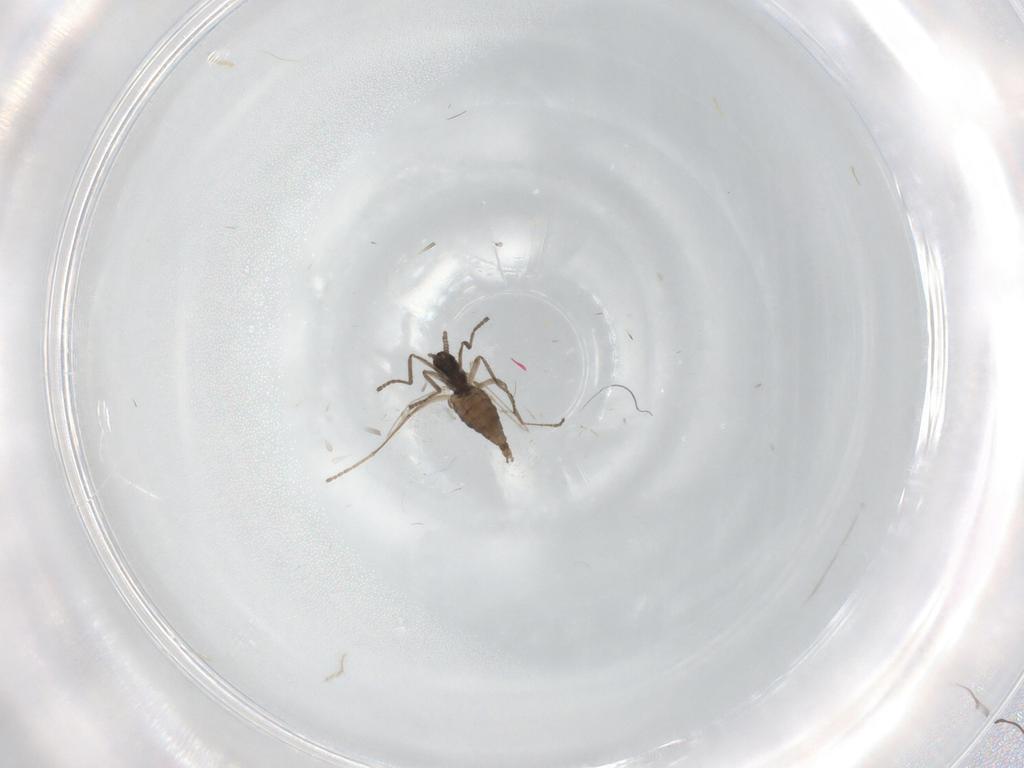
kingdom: Animalia
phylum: Arthropoda
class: Insecta
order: Diptera
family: Cecidomyiidae
